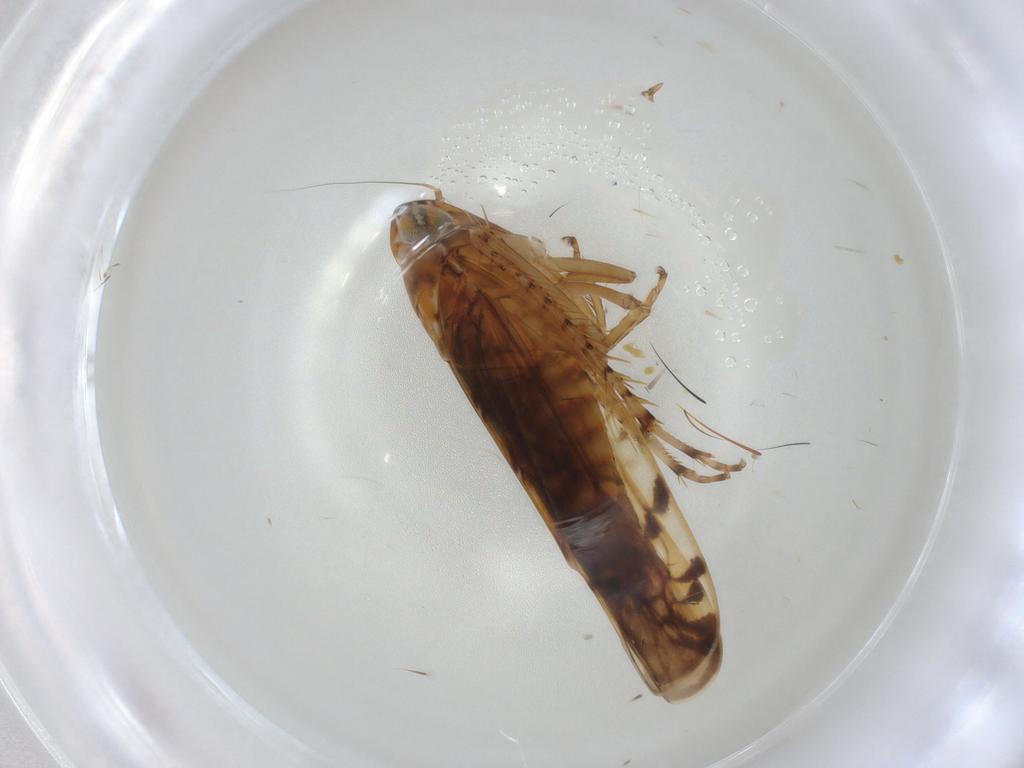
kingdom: Animalia
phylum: Arthropoda
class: Insecta
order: Hemiptera
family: Aleyrodidae
